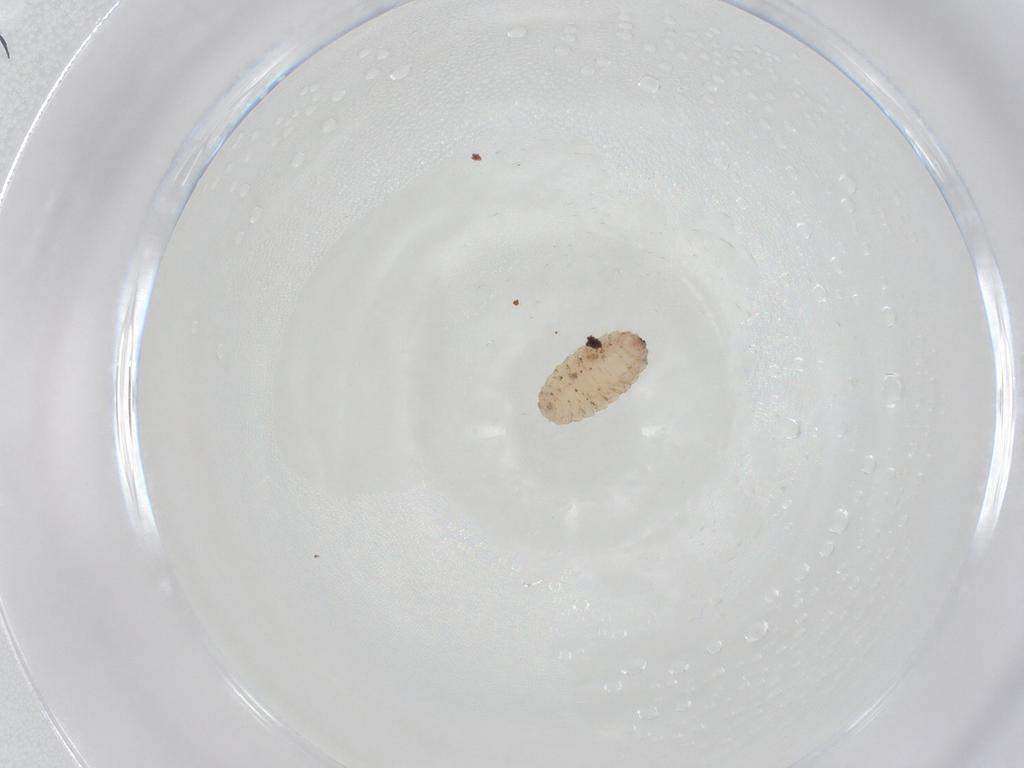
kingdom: Animalia
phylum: Arthropoda
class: Insecta
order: Diptera
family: Cecidomyiidae
